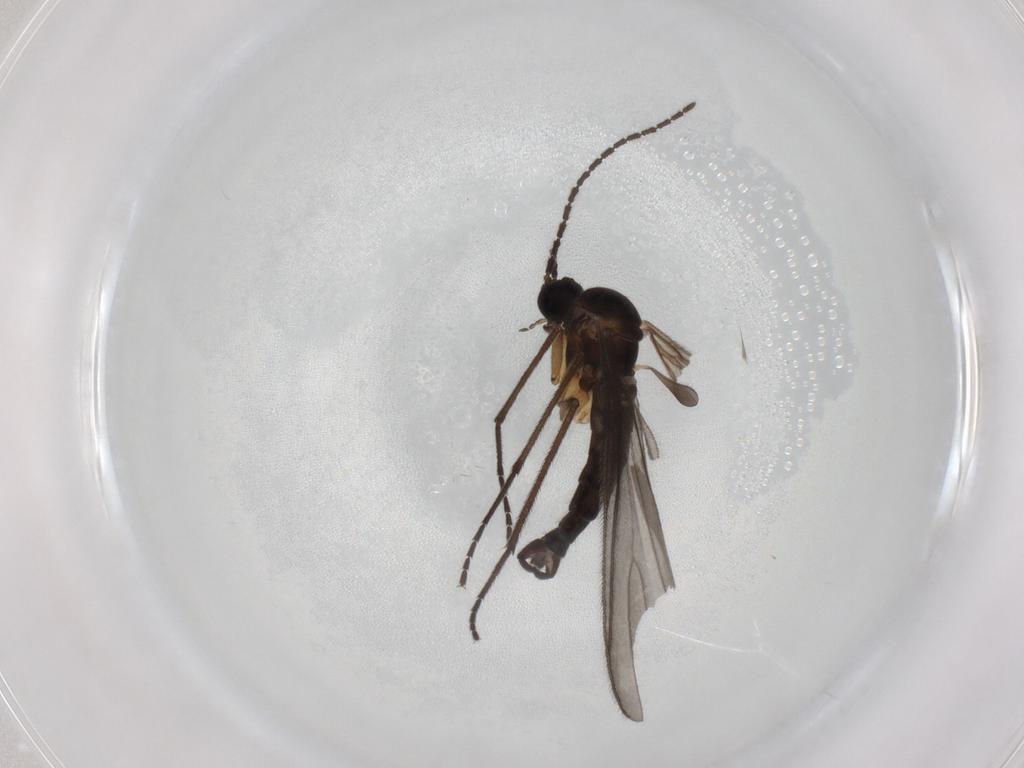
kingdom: Animalia
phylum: Arthropoda
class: Insecta
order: Diptera
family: Sciaridae
